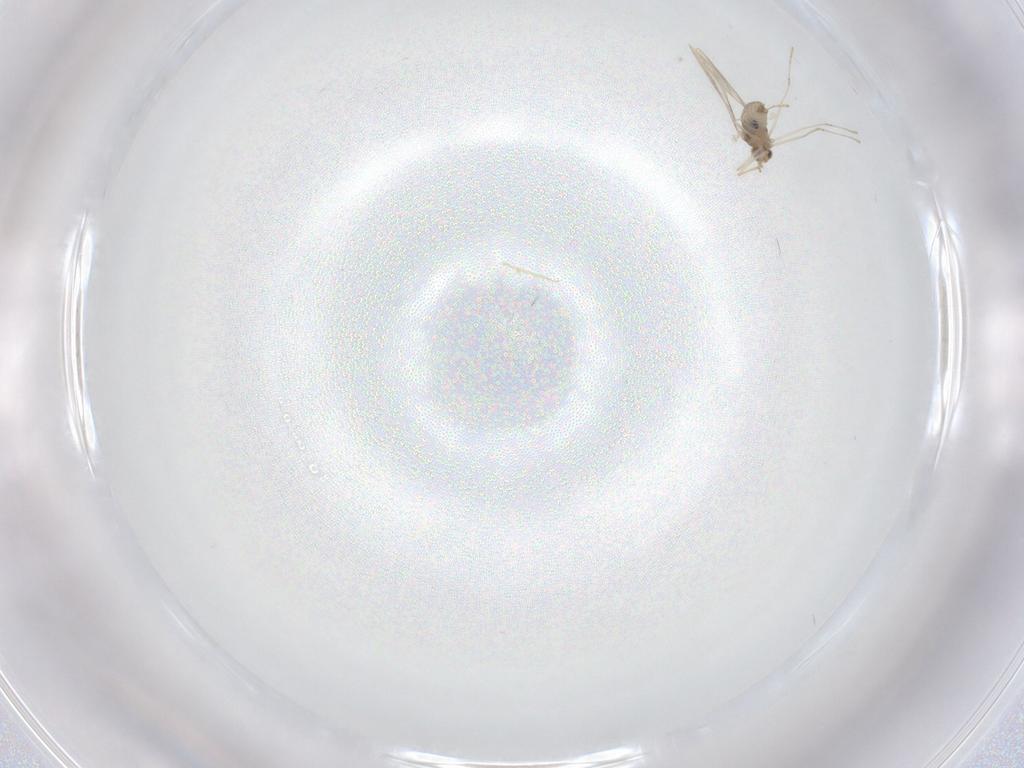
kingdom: Animalia
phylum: Arthropoda
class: Insecta
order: Diptera
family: Cecidomyiidae
